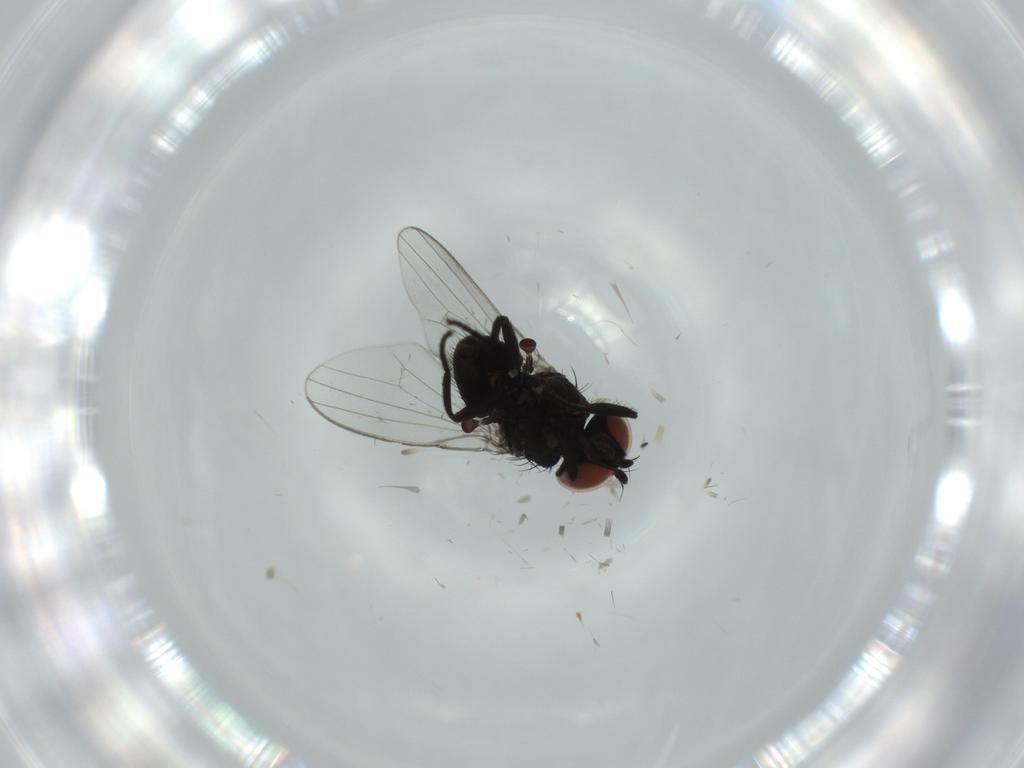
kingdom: Animalia
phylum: Arthropoda
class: Insecta
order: Diptera
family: Milichiidae
